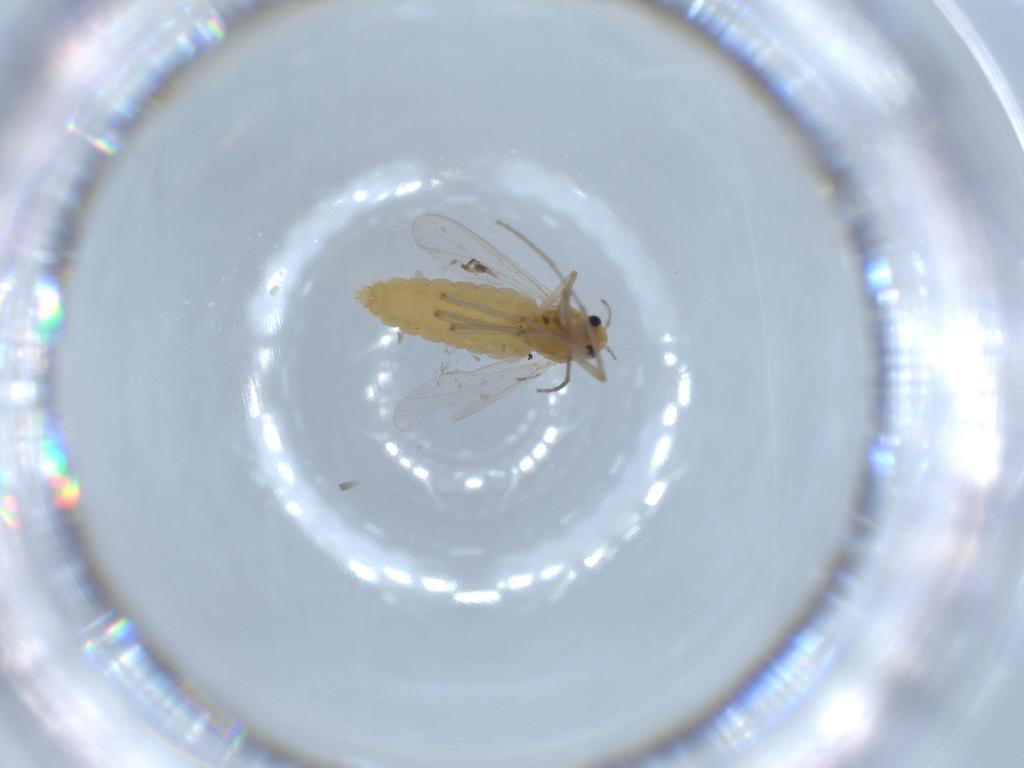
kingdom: Animalia
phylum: Arthropoda
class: Insecta
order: Diptera
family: Chironomidae
